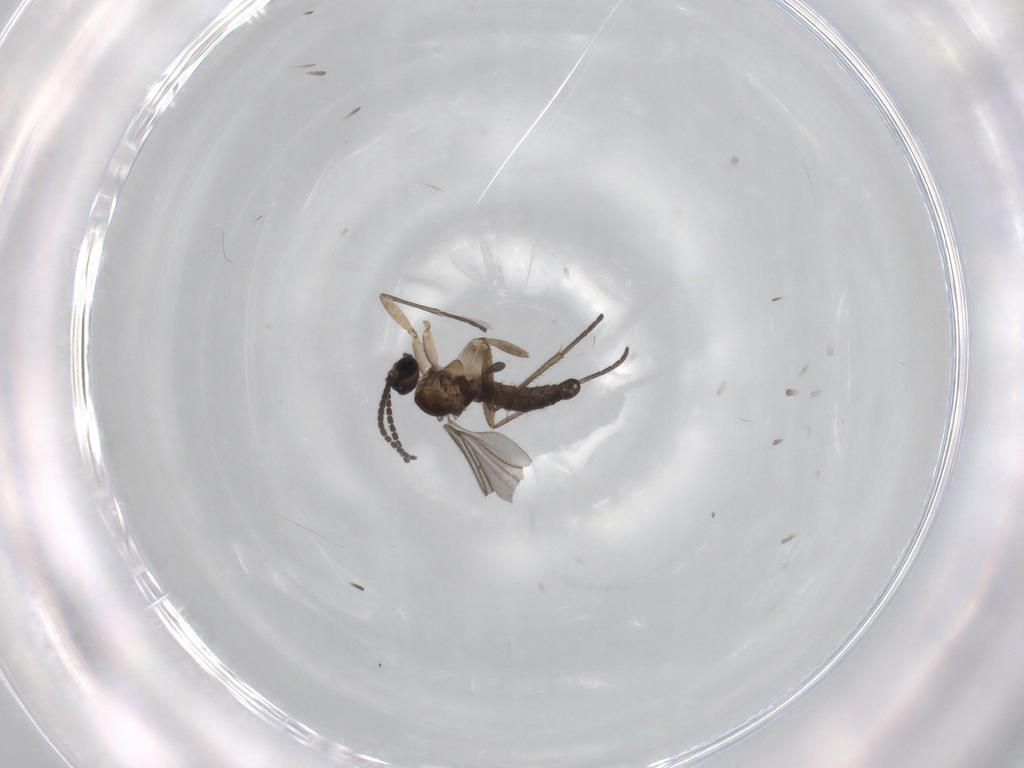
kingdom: Animalia
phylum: Arthropoda
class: Insecta
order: Diptera
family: Sciaridae
